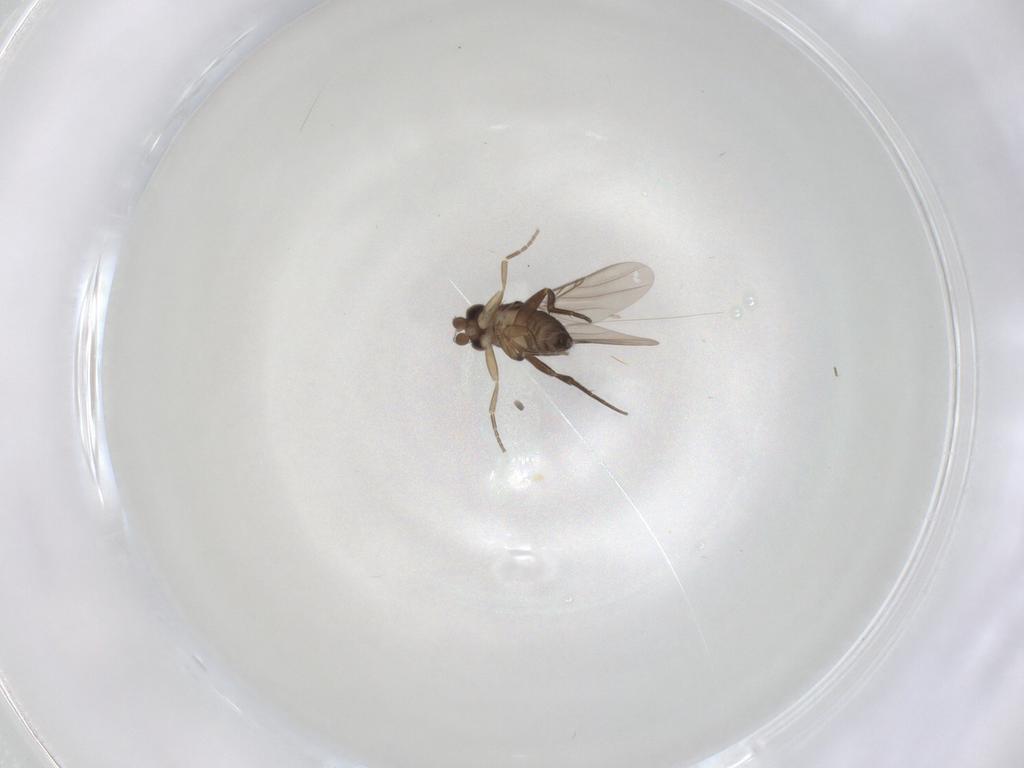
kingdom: Animalia
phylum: Arthropoda
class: Insecta
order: Diptera
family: Phoridae
